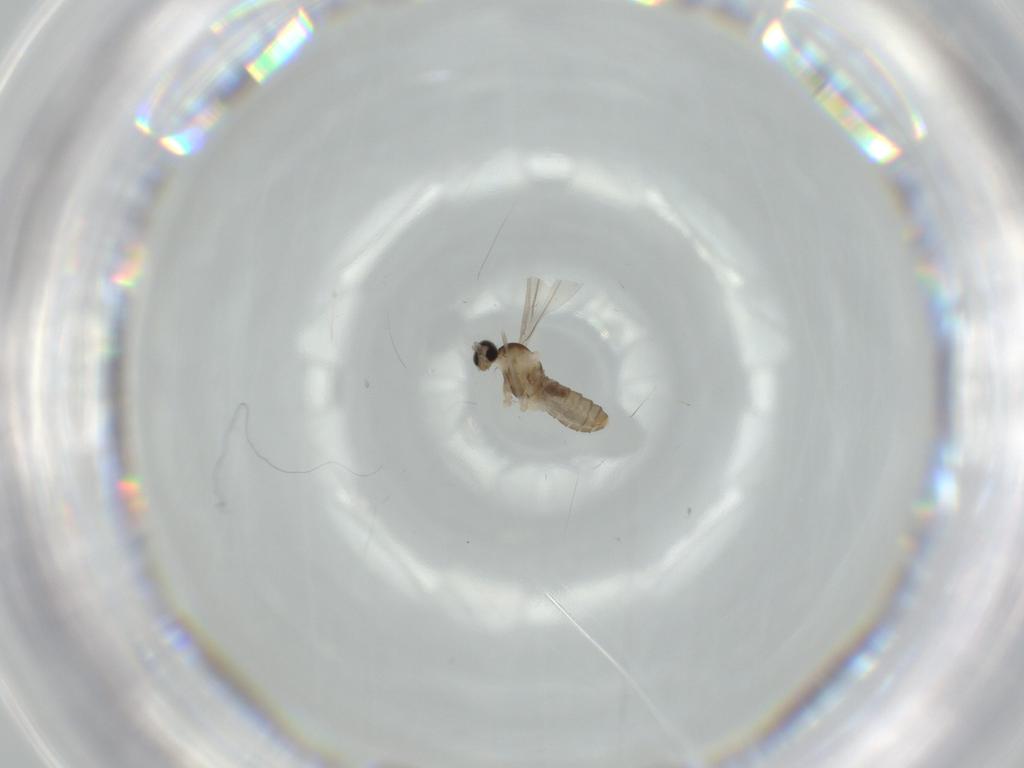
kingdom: Animalia
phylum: Arthropoda
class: Insecta
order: Diptera
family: Cecidomyiidae
